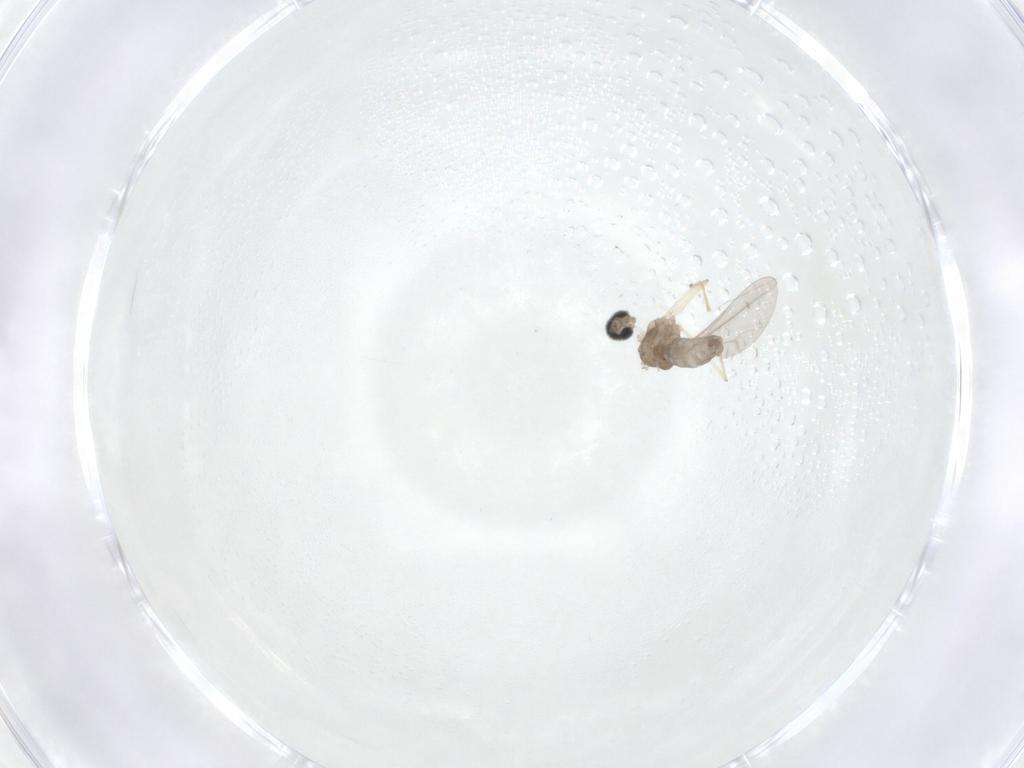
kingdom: Animalia
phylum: Arthropoda
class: Insecta
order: Diptera
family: Cecidomyiidae
